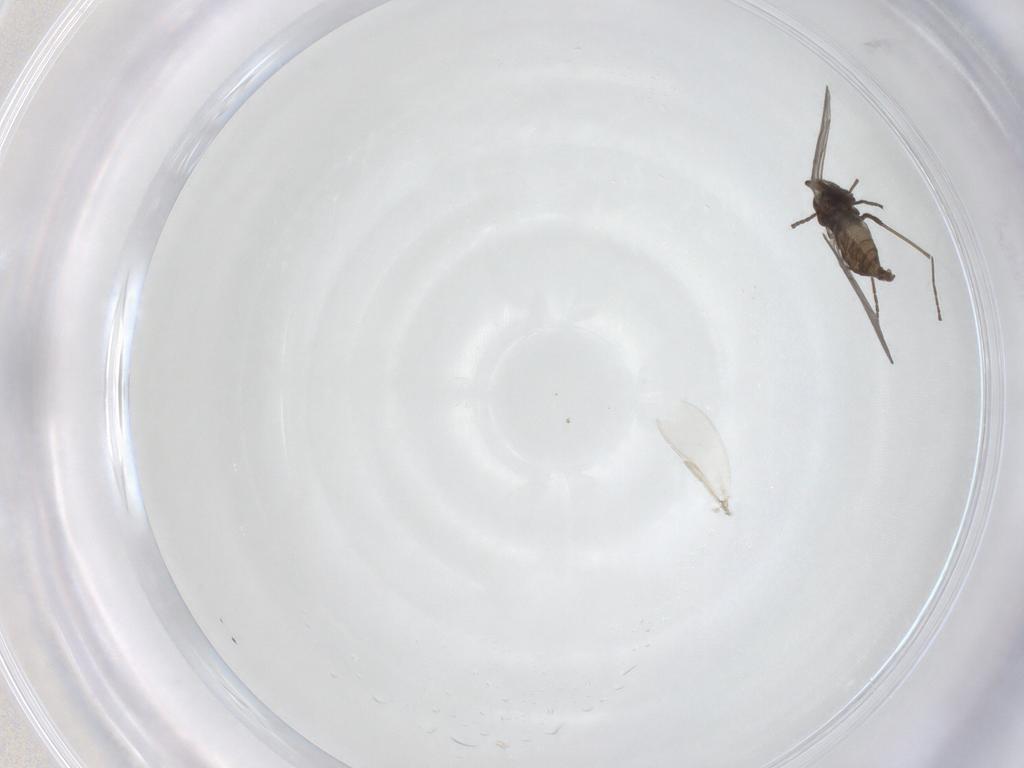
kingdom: Animalia
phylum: Arthropoda
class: Insecta
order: Diptera
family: Cecidomyiidae
